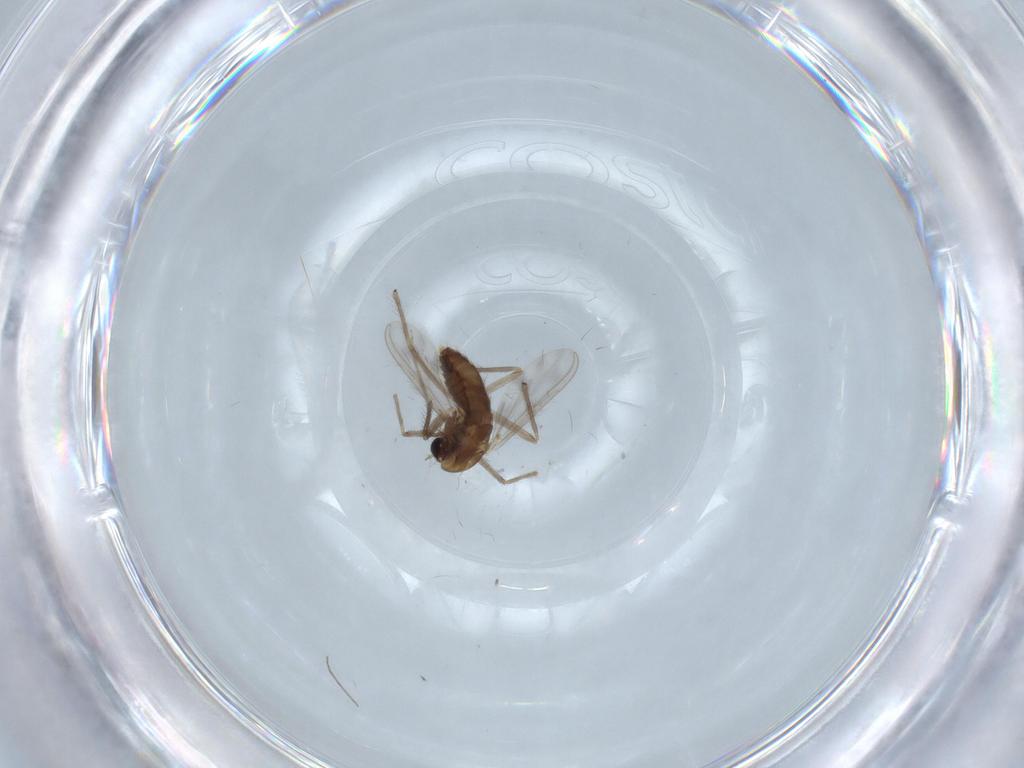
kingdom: Animalia
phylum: Arthropoda
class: Insecta
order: Diptera
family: Chironomidae
